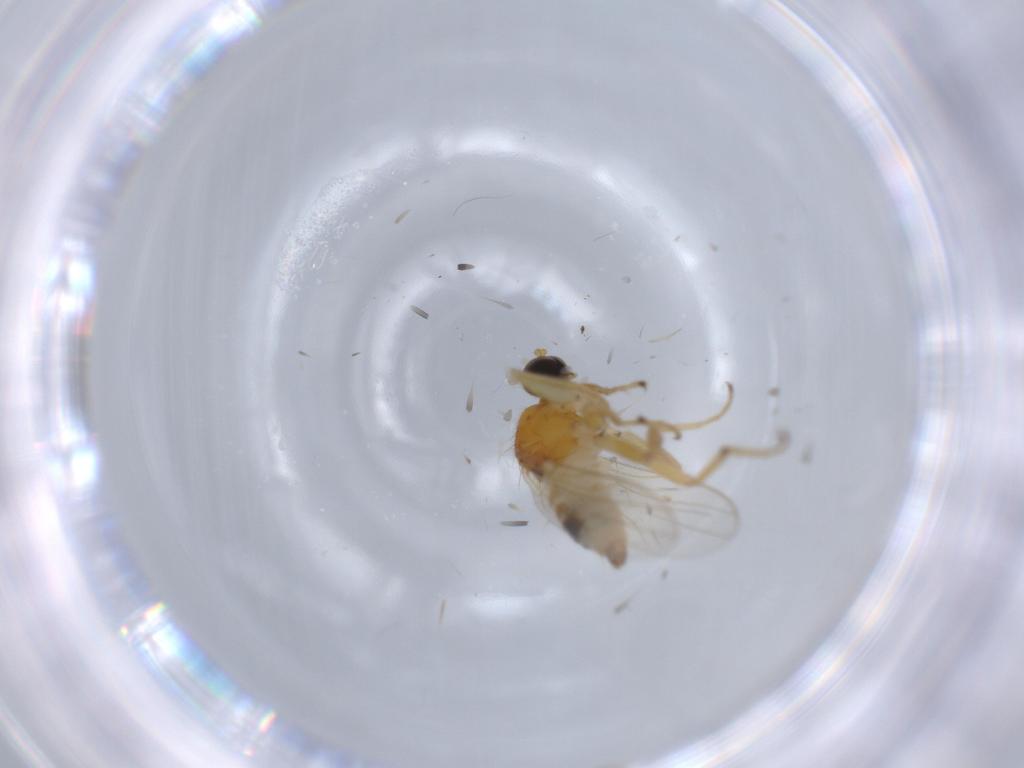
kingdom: Animalia
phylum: Arthropoda
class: Insecta
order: Diptera
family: Hybotidae
